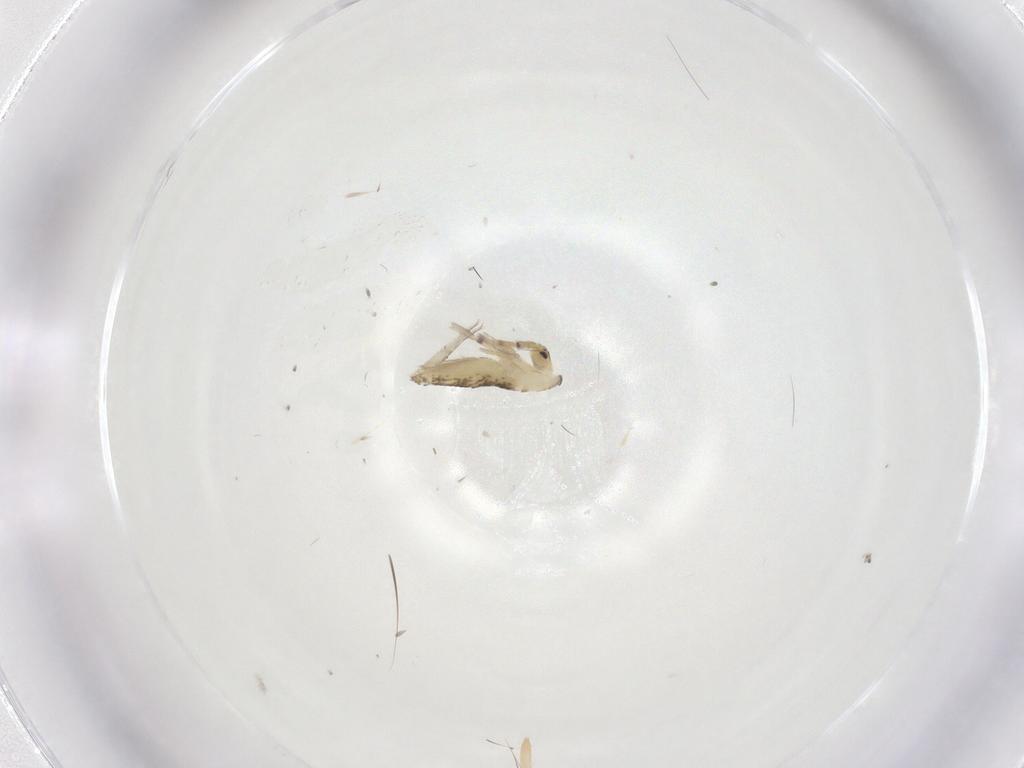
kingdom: Animalia
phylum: Arthropoda
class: Collembola
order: Entomobryomorpha
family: Entomobryidae
